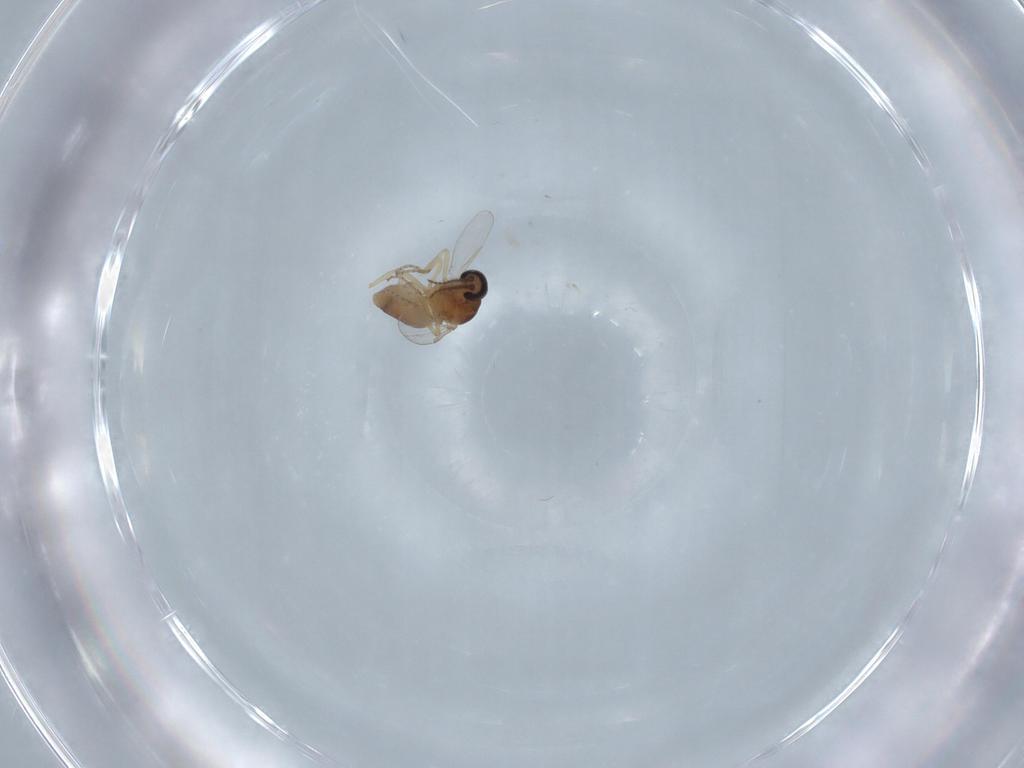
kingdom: Animalia
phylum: Arthropoda
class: Insecta
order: Diptera
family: Ceratopogonidae
